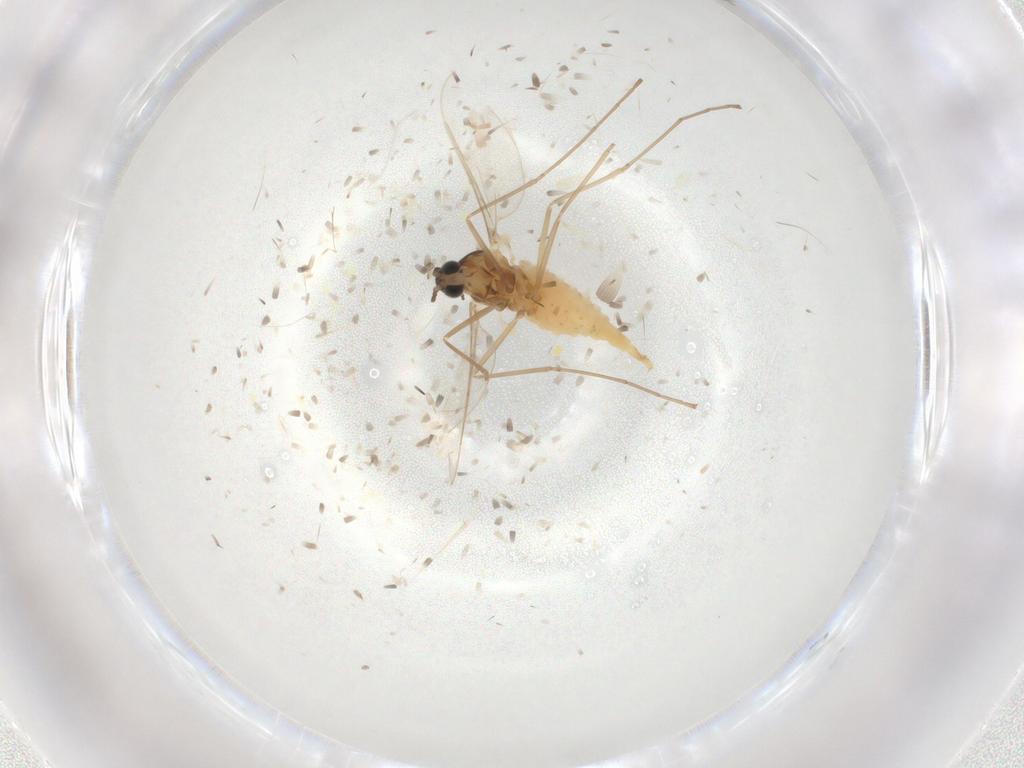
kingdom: Animalia
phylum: Arthropoda
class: Insecta
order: Diptera
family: Cecidomyiidae
